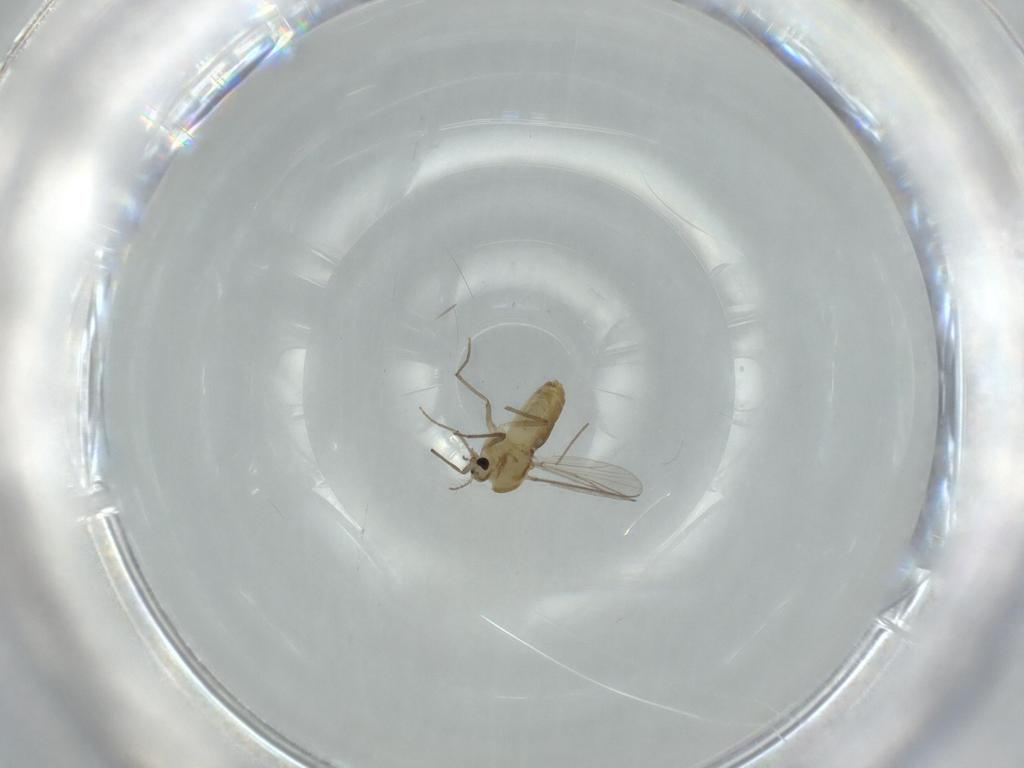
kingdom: Animalia
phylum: Arthropoda
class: Insecta
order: Diptera
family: Chironomidae
